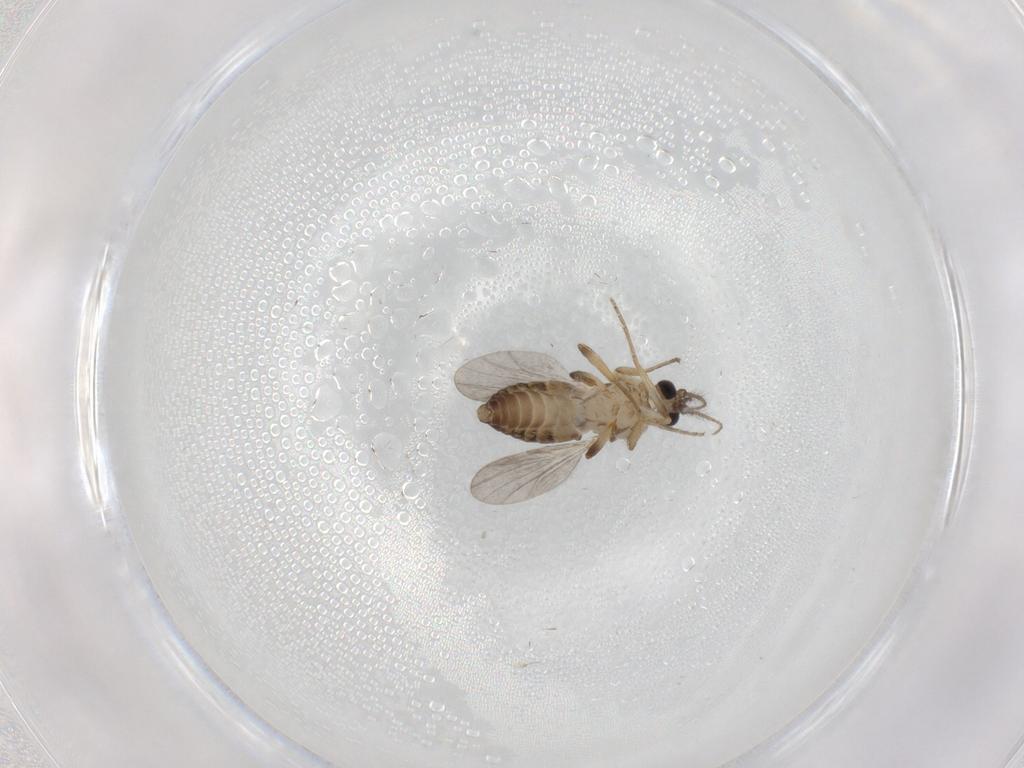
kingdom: Animalia
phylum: Arthropoda
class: Insecta
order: Diptera
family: Ceratopogonidae
